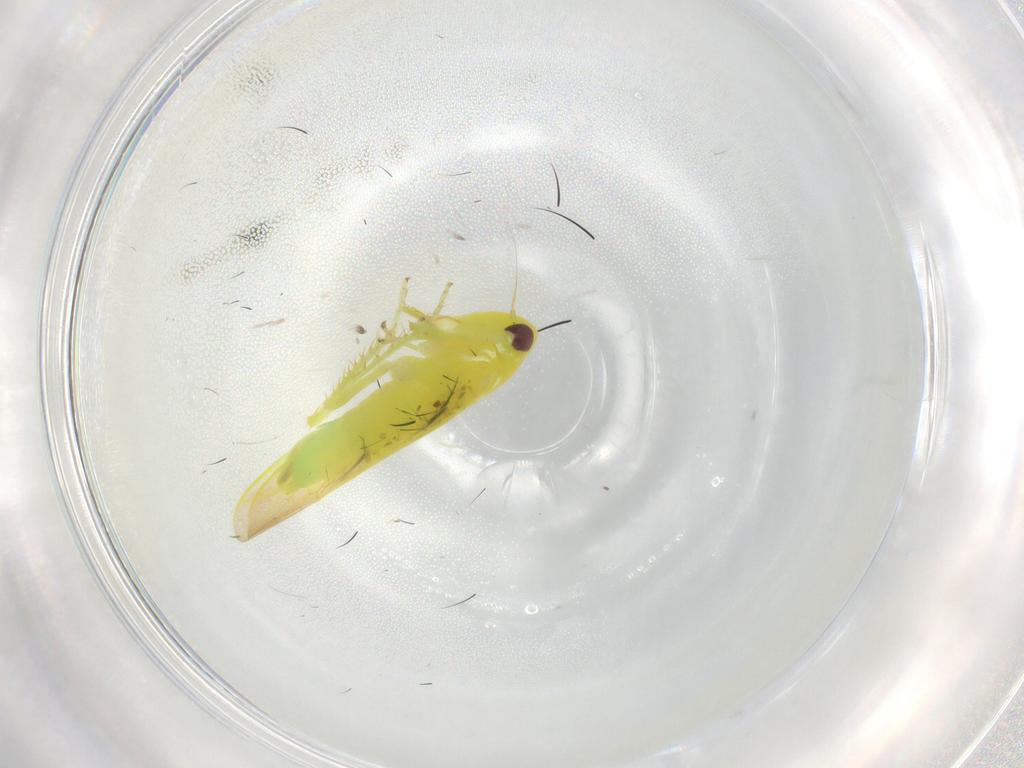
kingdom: Animalia
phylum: Arthropoda
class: Insecta
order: Hemiptera
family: Cicadellidae
